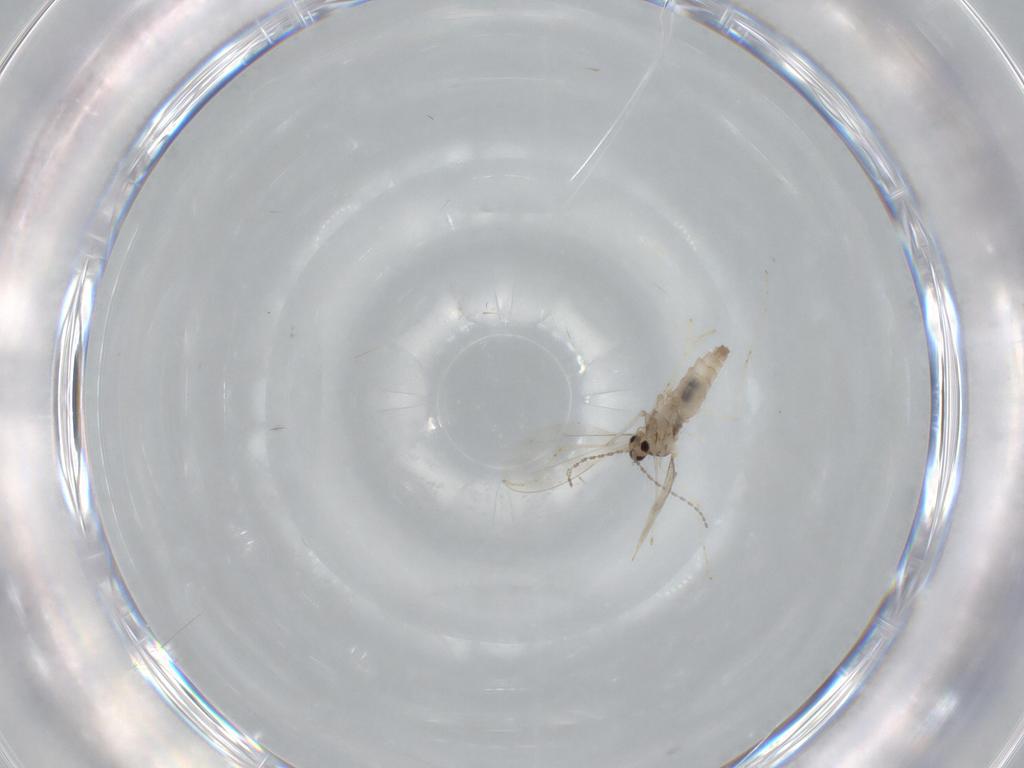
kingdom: Animalia
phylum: Arthropoda
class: Insecta
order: Diptera
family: Cecidomyiidae
